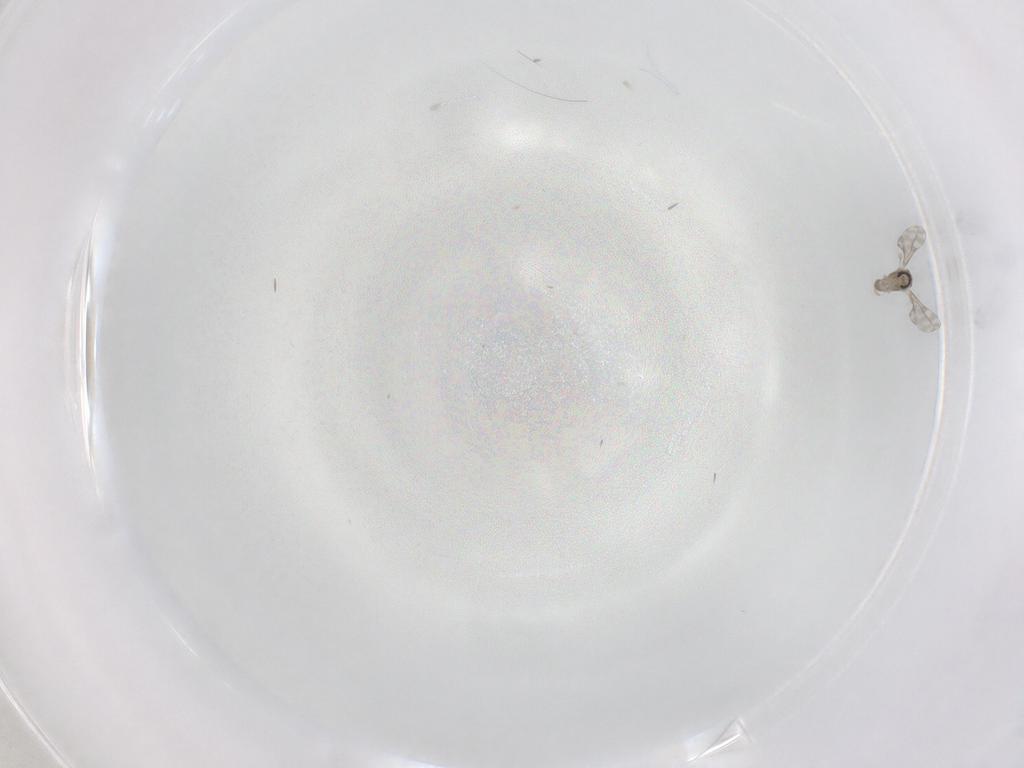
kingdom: Animalia
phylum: Arthropoda
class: Insecta
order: Diptera
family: Cecidomyiidae
